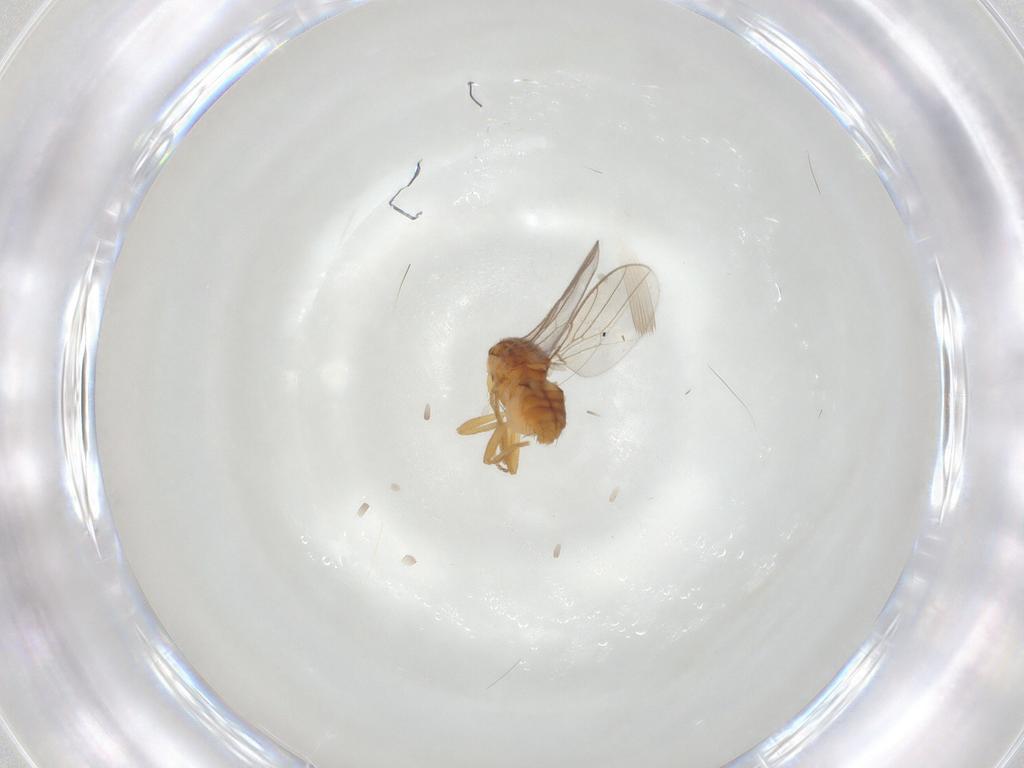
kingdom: Animalia
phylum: Arthropoda
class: Insecta
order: Diptera
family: Chloropidae
